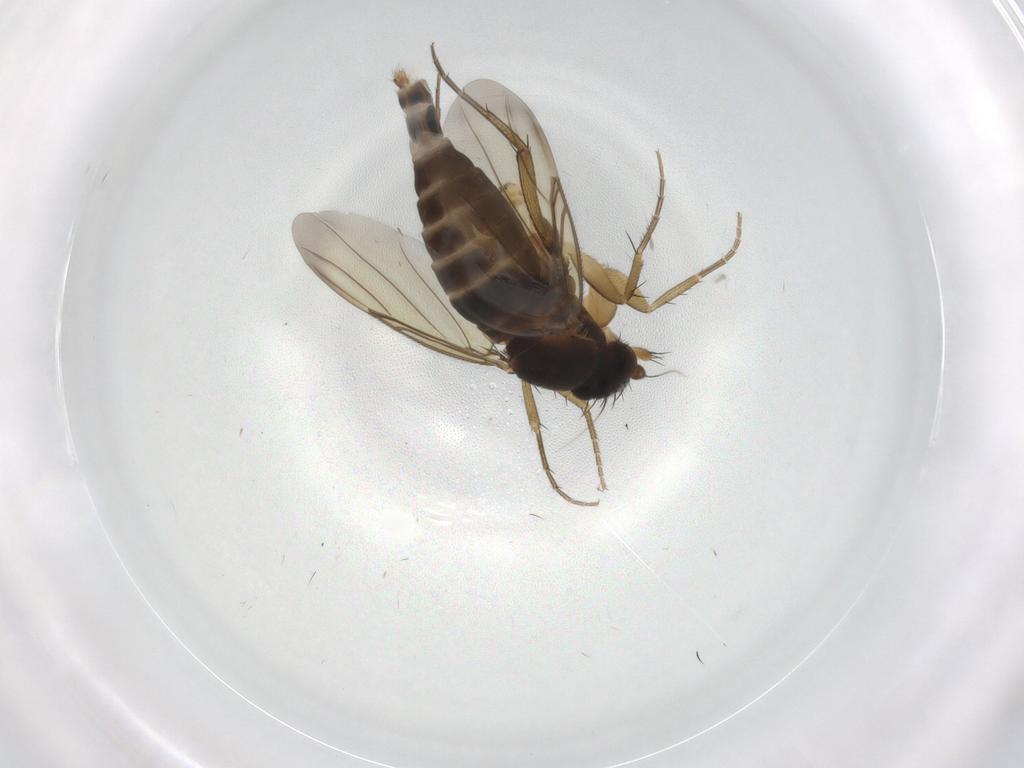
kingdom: Animalia
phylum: Arthropoda
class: Insecta
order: Diptera
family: Phoridae
